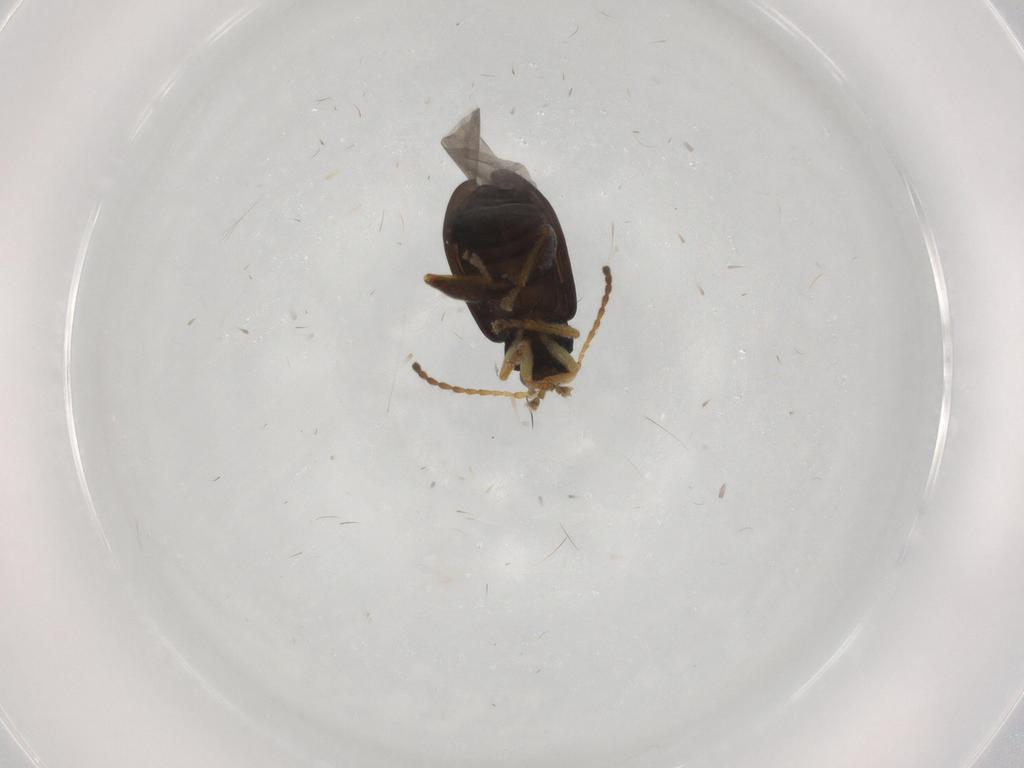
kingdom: Animalia
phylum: Arthropoda
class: Insecta
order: Coleoptera
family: Chrysomelidae
